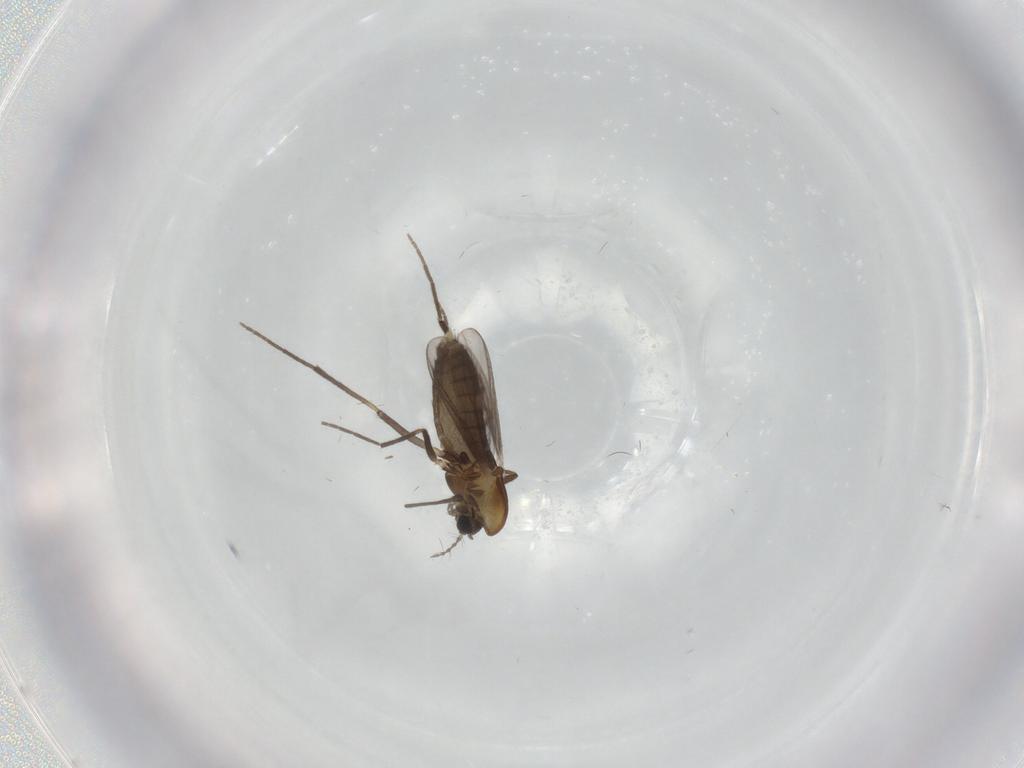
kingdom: Animalia
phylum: Arthropoda
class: Insecta
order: Diptera
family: Chironomidae
